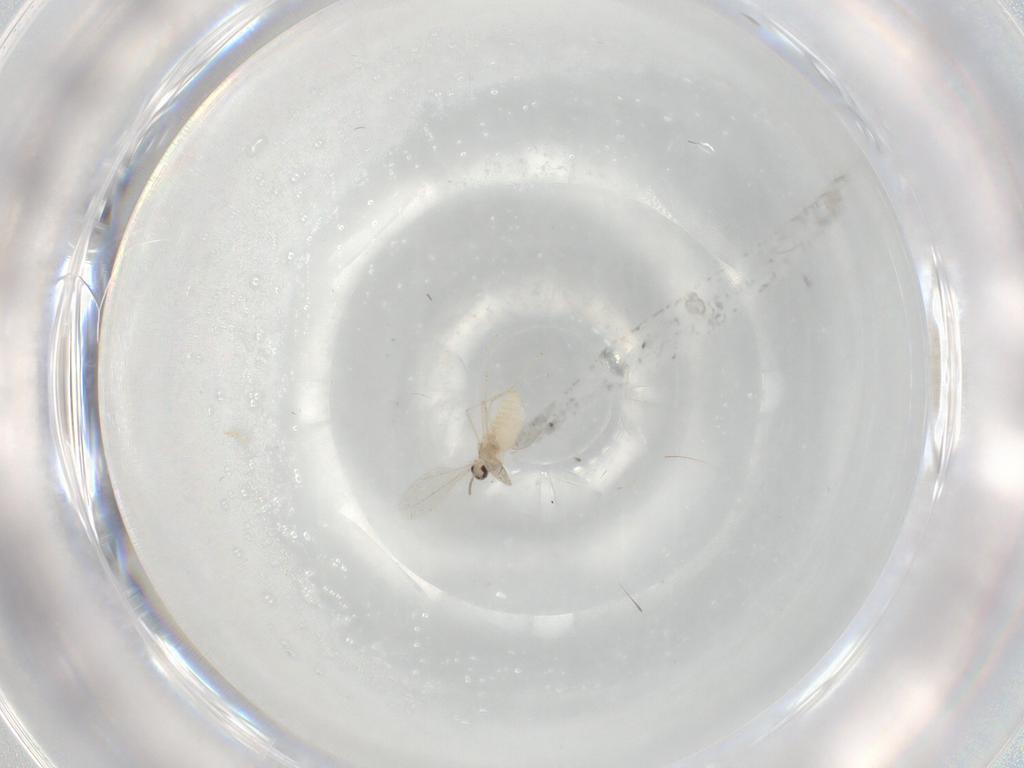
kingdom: Animalia
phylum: Arthropoda
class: Insecta
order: Diptera
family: Cecidomyiidae
